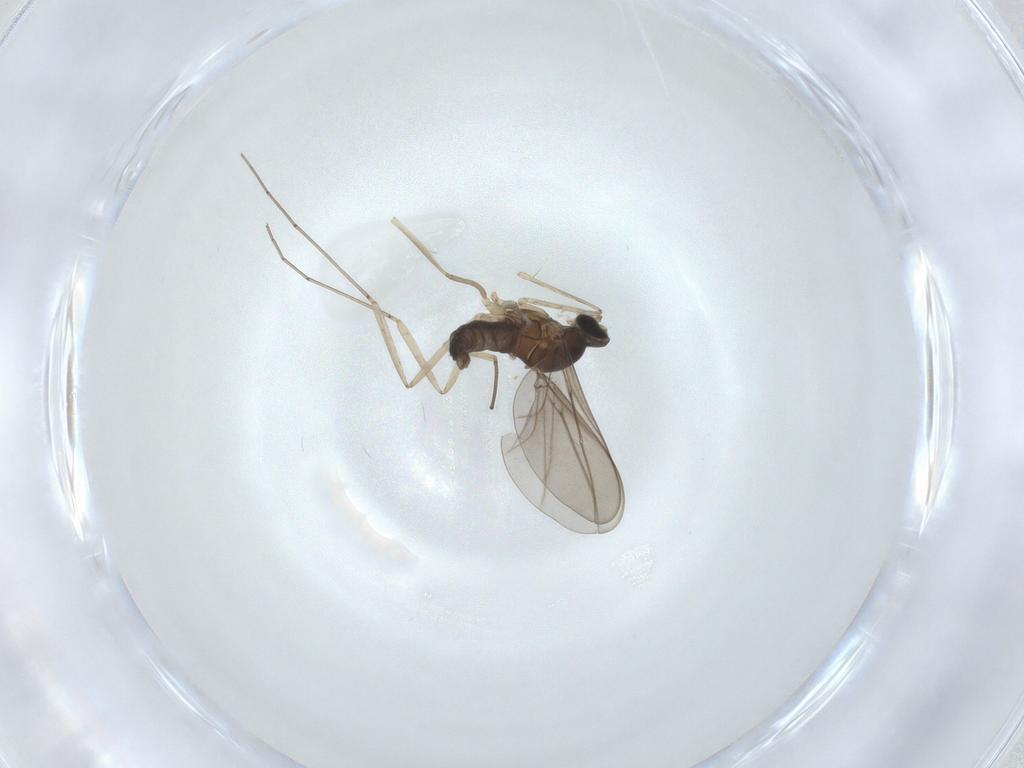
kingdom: Animalia
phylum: Arthropoda
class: Insecta
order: Diptera
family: Cecidomyiidae
